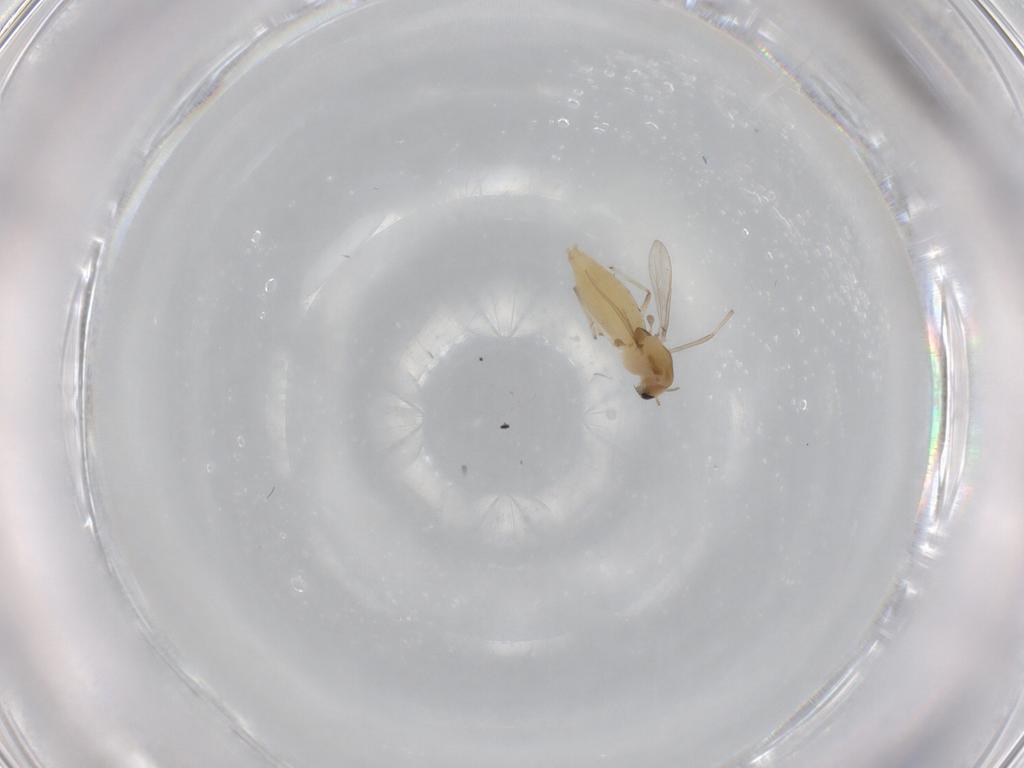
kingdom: Animalia
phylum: Arthropoda
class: Insecta
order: Diptera
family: Chironomidae
